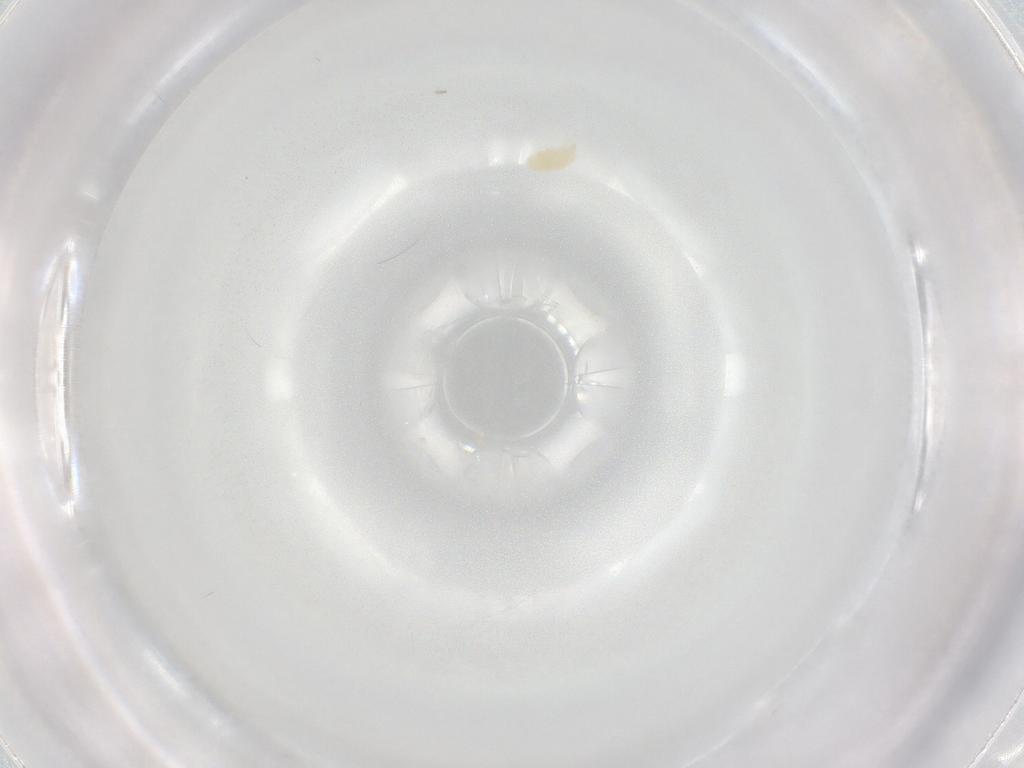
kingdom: Animalia
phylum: Arthropoda
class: Arachnida
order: Trombidiformes
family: Eupodidae
